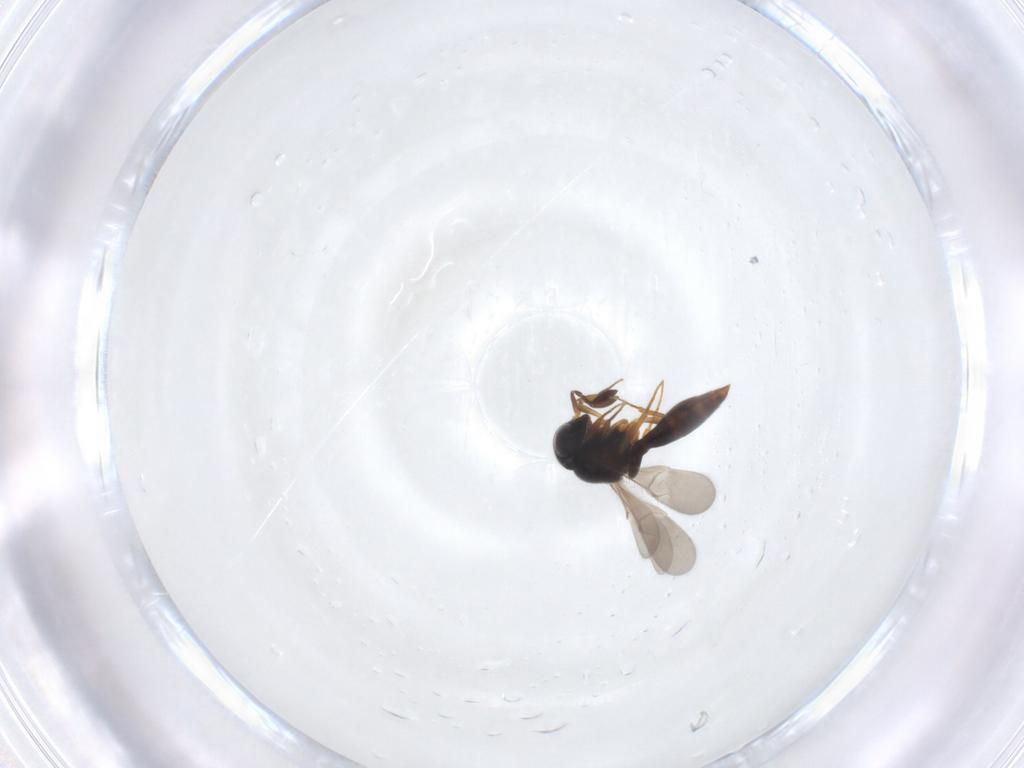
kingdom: Animalia
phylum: Arthropoda
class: Insecta
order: Hymenoptera
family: Scelionidae
